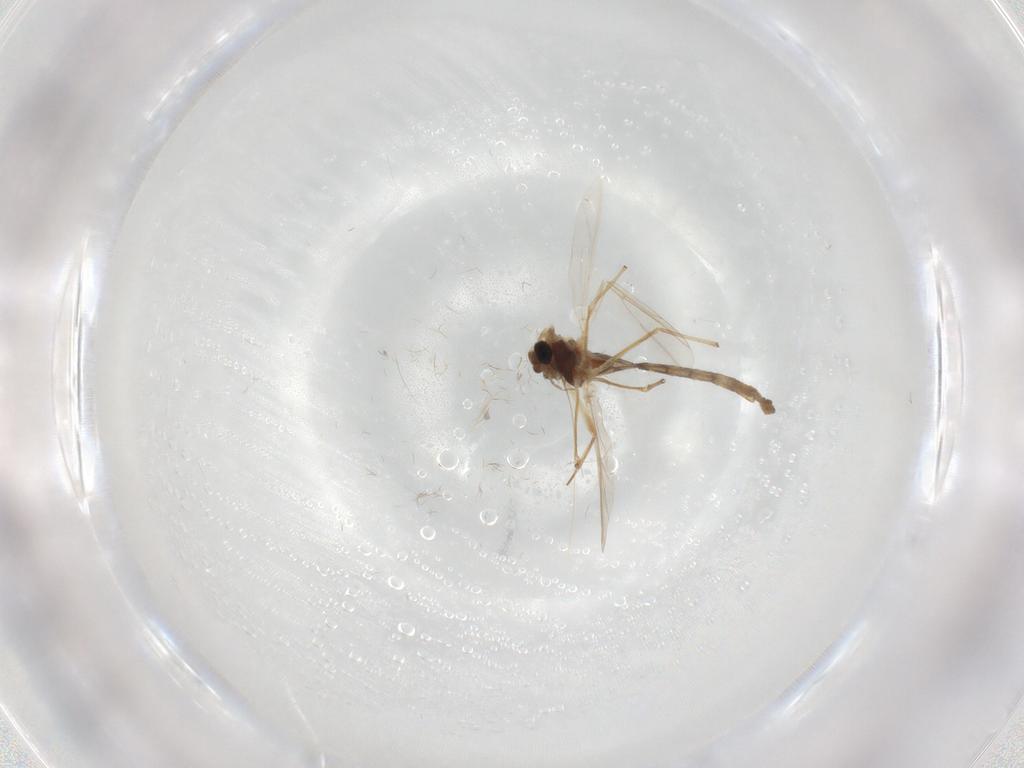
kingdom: Animalia
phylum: Arthropoda
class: Insecta
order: Diptera
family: Chironomidae
